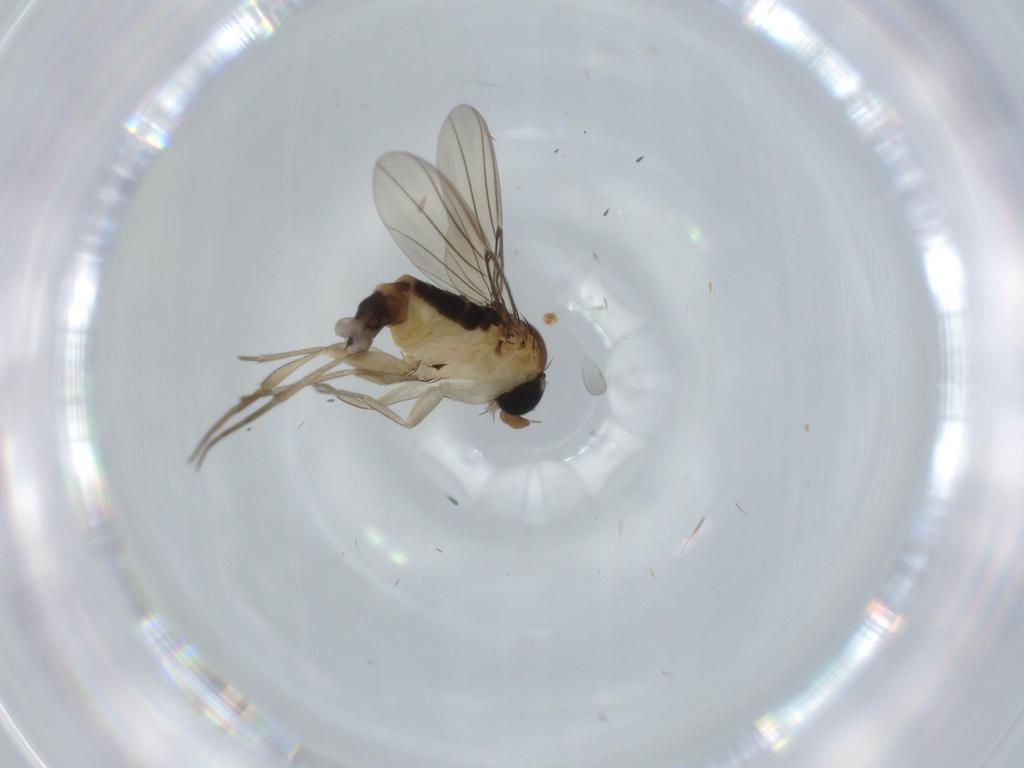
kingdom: Animalia
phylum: Arthropoda
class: Insecta
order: Diptera
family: Phoridae
